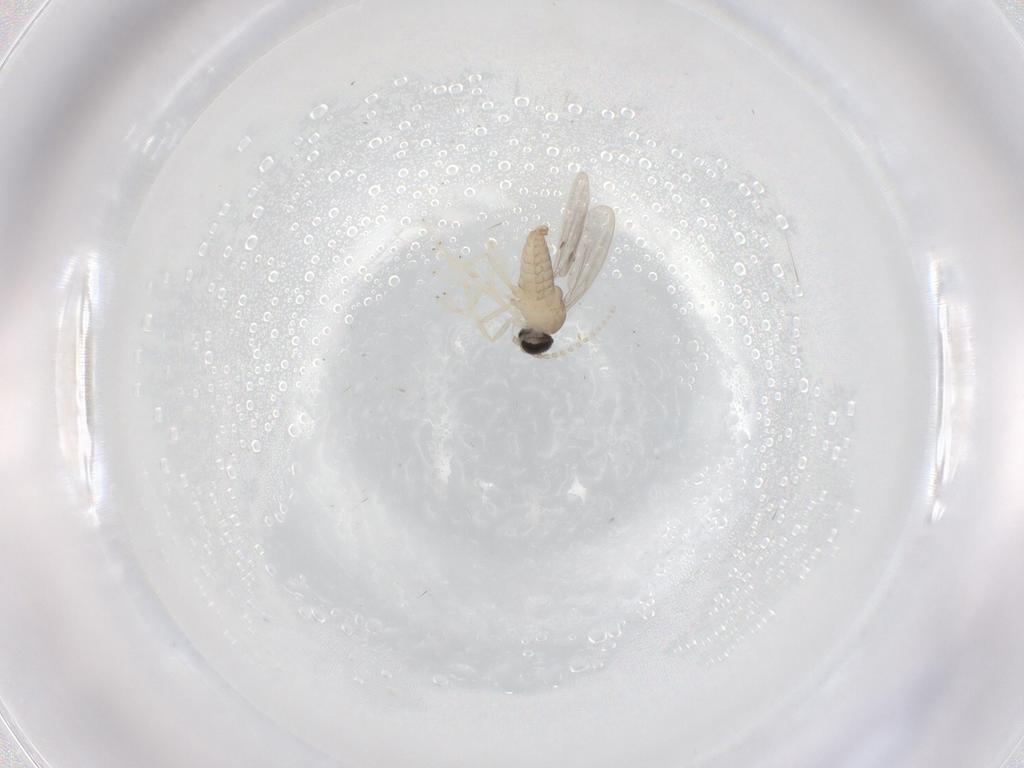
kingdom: Animalia
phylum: Arthropoda
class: Insecta
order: Diptera
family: Cecidomyiidae
